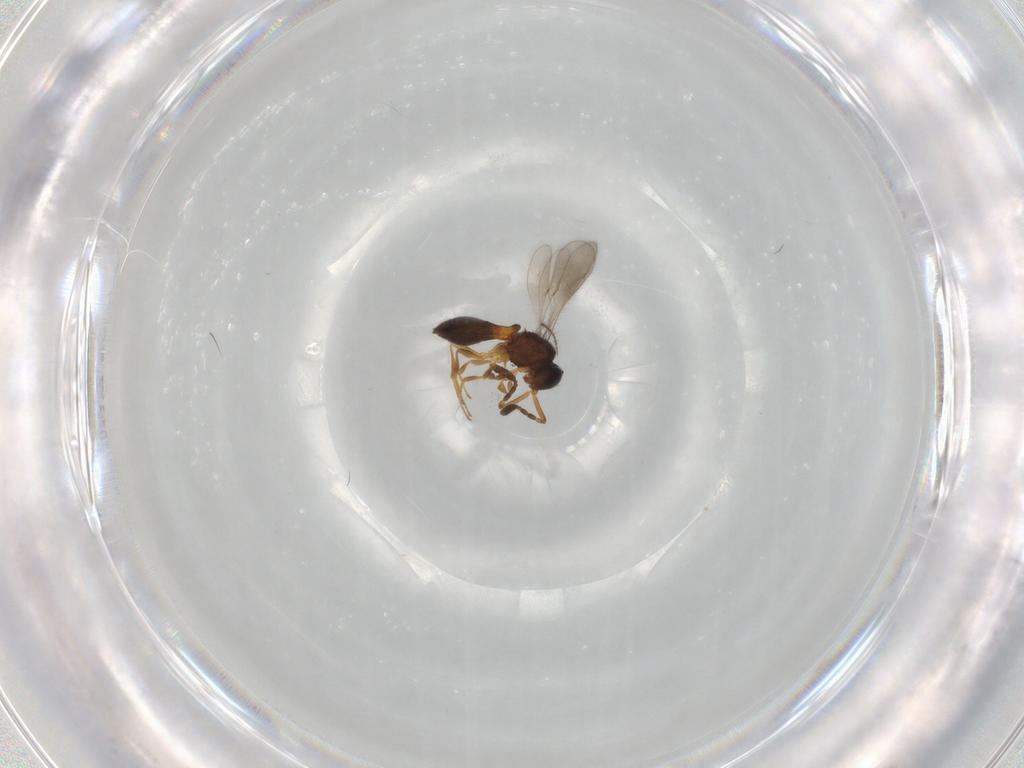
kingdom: Animalia
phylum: Arthropoda
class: Insecta
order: Hymenoptera
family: Scelionidae
